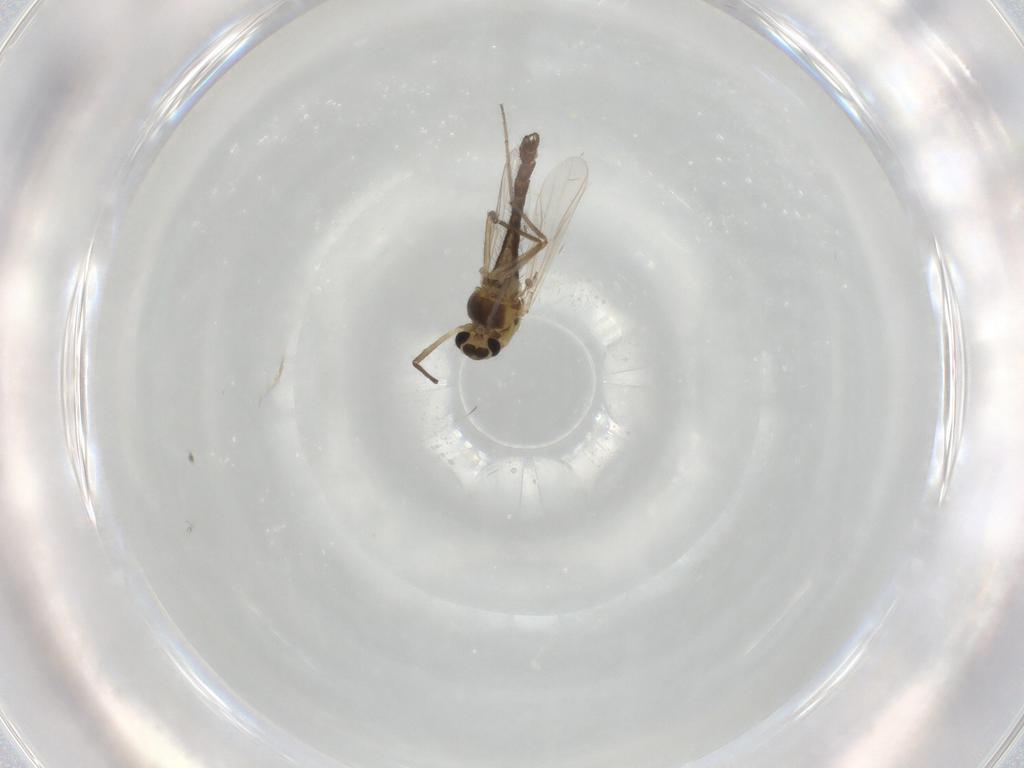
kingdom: Animalia
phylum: Arthropoda
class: Insecta
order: Diptera
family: Chironomidae
